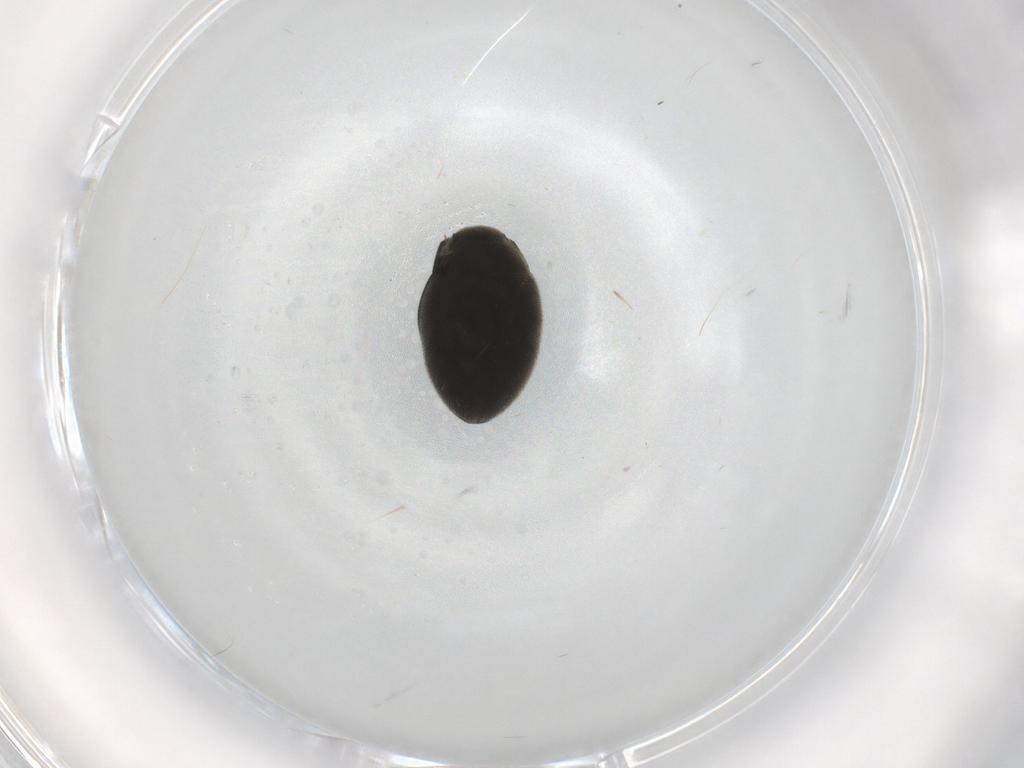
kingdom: Animalia
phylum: Arthropoda
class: Insecta
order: Coleoptera
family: Limnichidae
